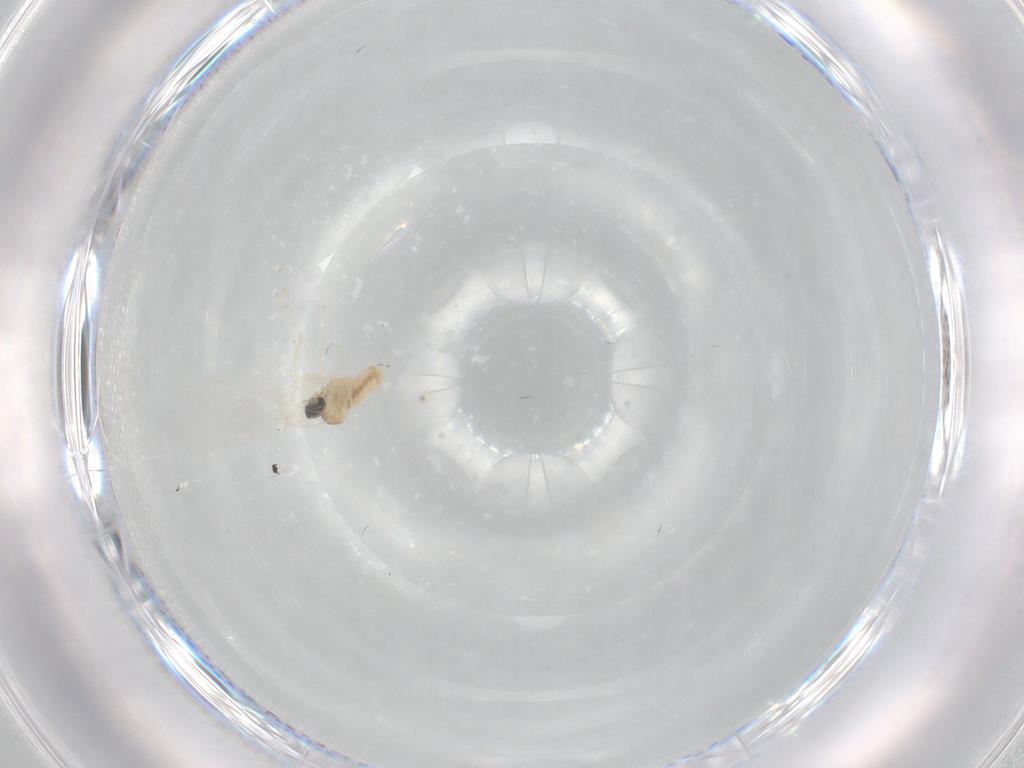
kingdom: Animalia
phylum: Arthropoda
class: Insecta
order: Diptera
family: Cecidomyiidae
